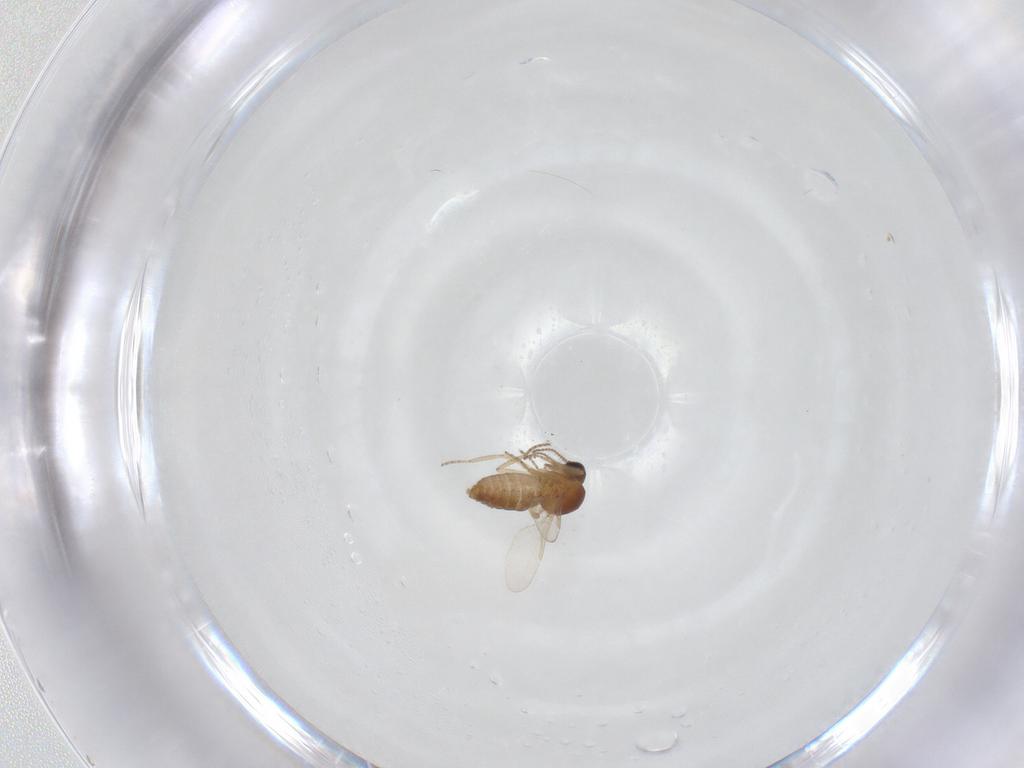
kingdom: Animalia
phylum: Arthropoda
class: Insecta
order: Diptera
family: Ceratopogonidae
